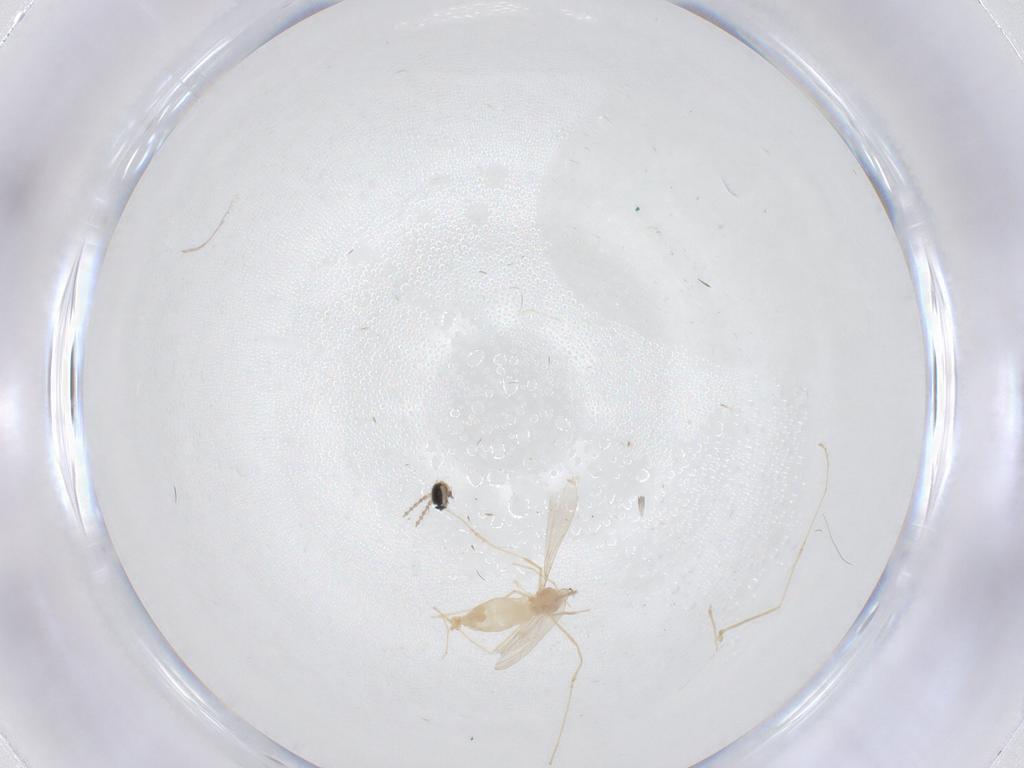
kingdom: Animalia
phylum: Arthropoda
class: Insecta
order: Diptera
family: Cecidomyiidae
